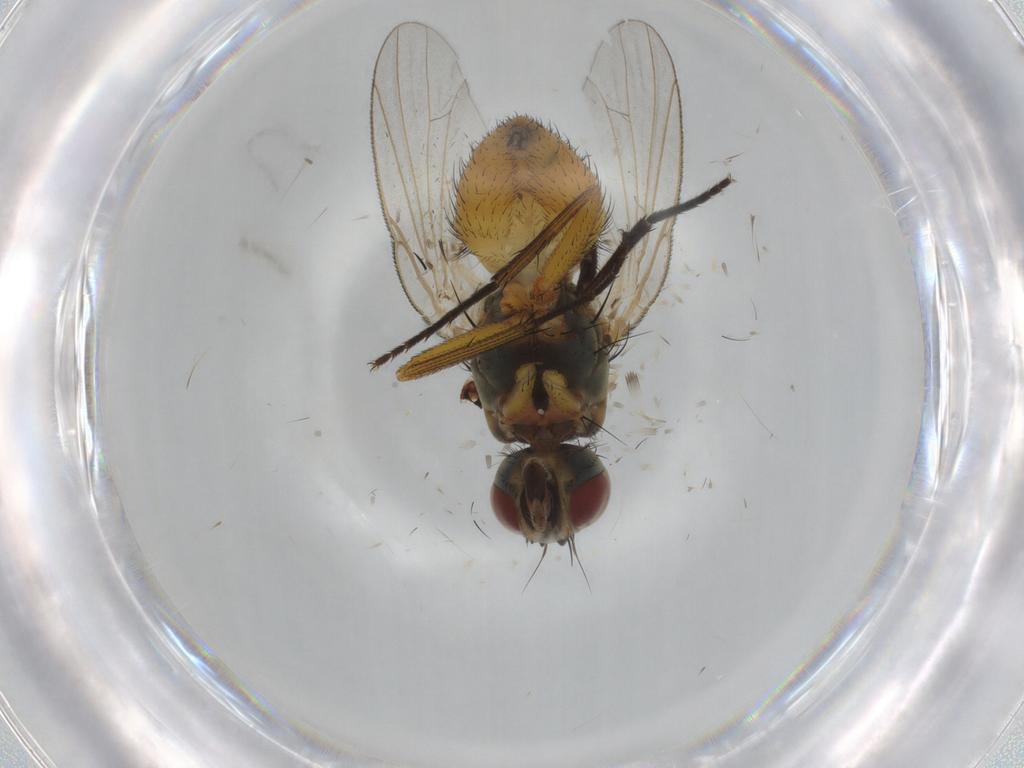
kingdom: Animalia
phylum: Arthropoda
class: Insecta
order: Diptera
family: Muscidae
